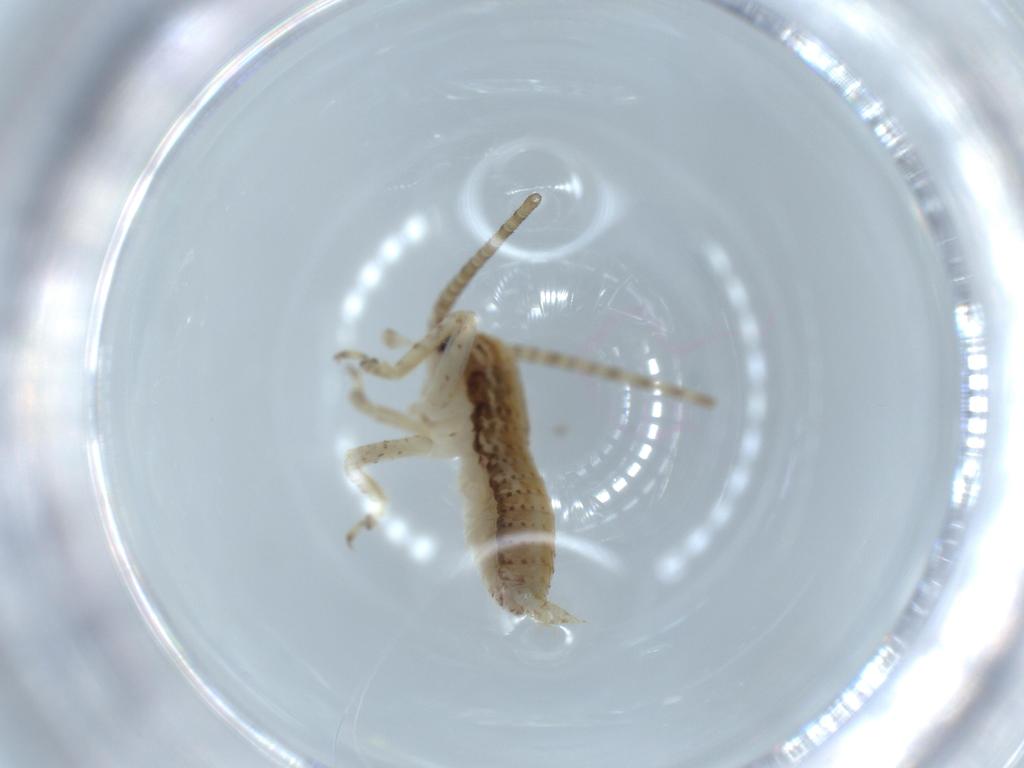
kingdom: Animalia
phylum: Arthropoda
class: Insecta
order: Orthoptera
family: Gryllidae
